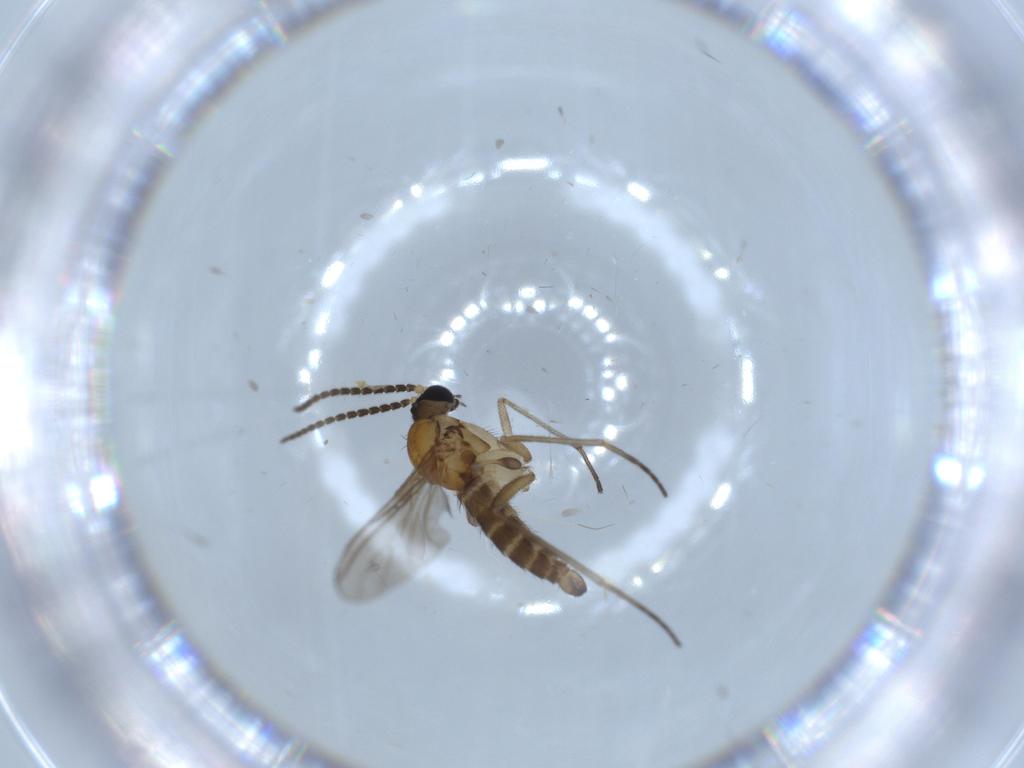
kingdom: Animalia
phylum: Arthropoda
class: Insecta
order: Diptera
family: Sciaridae
